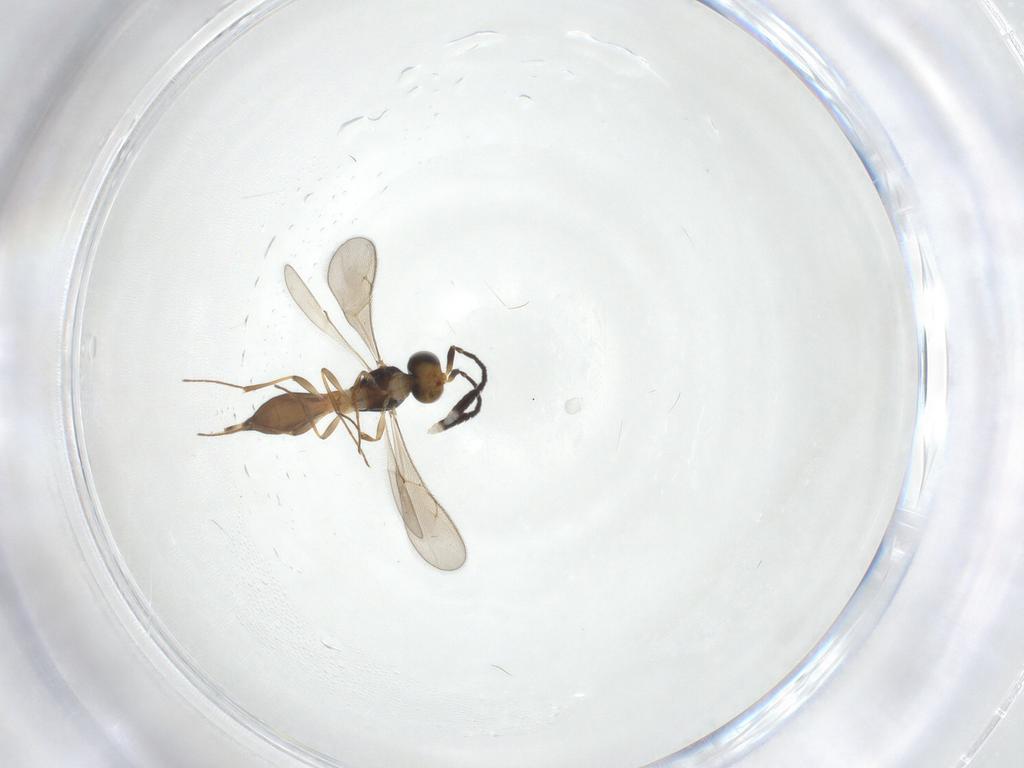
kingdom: Animalia
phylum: Arthropoda
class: Insecta
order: Hymenoptera
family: Scelionidae
